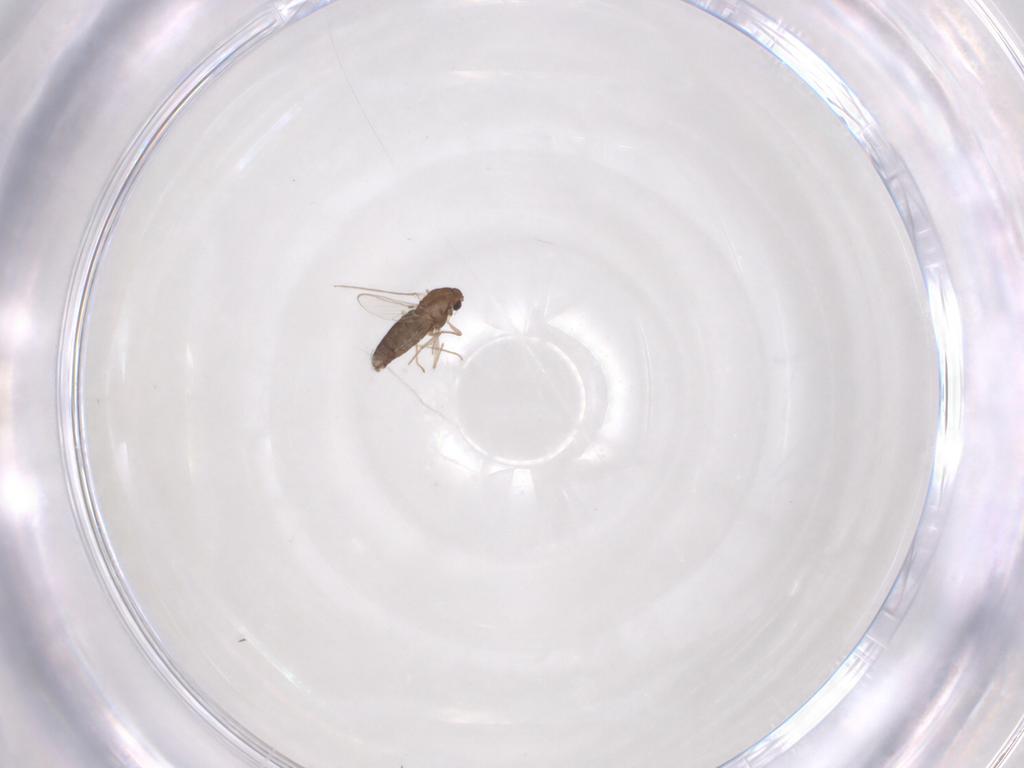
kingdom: Animalia
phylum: Arthropoda
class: Insecta
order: Diptera
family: Chironomidae
